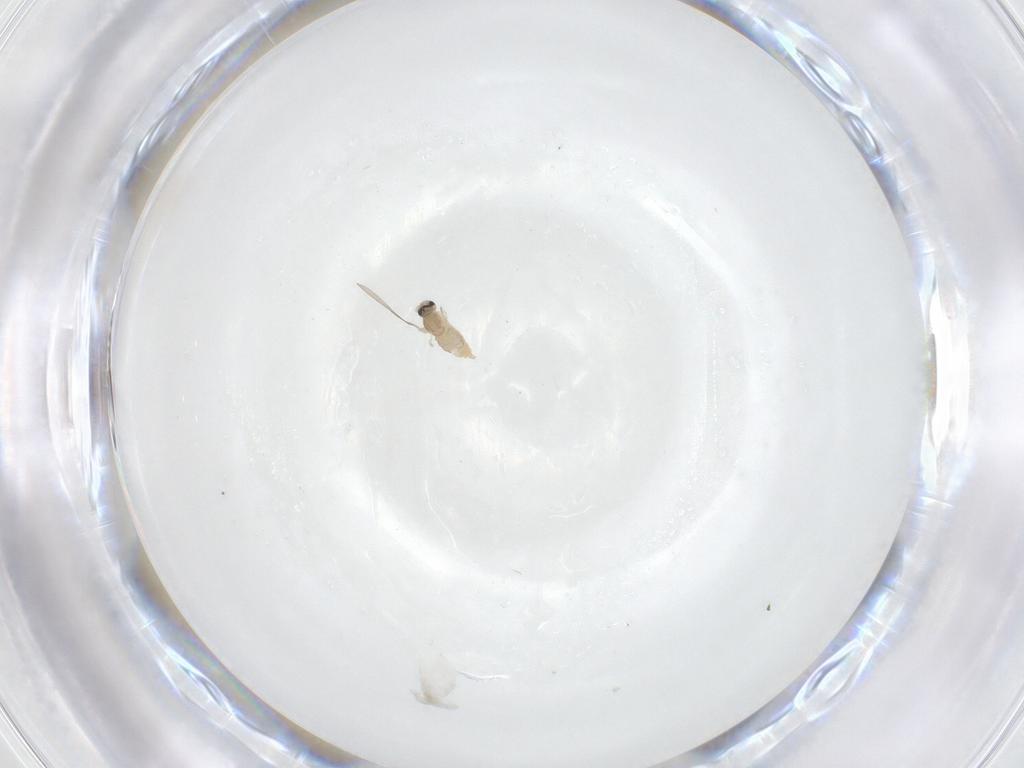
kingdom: Animalia
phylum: Arthropoda
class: Insecta
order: Diptera
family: Cecidomyiidae
